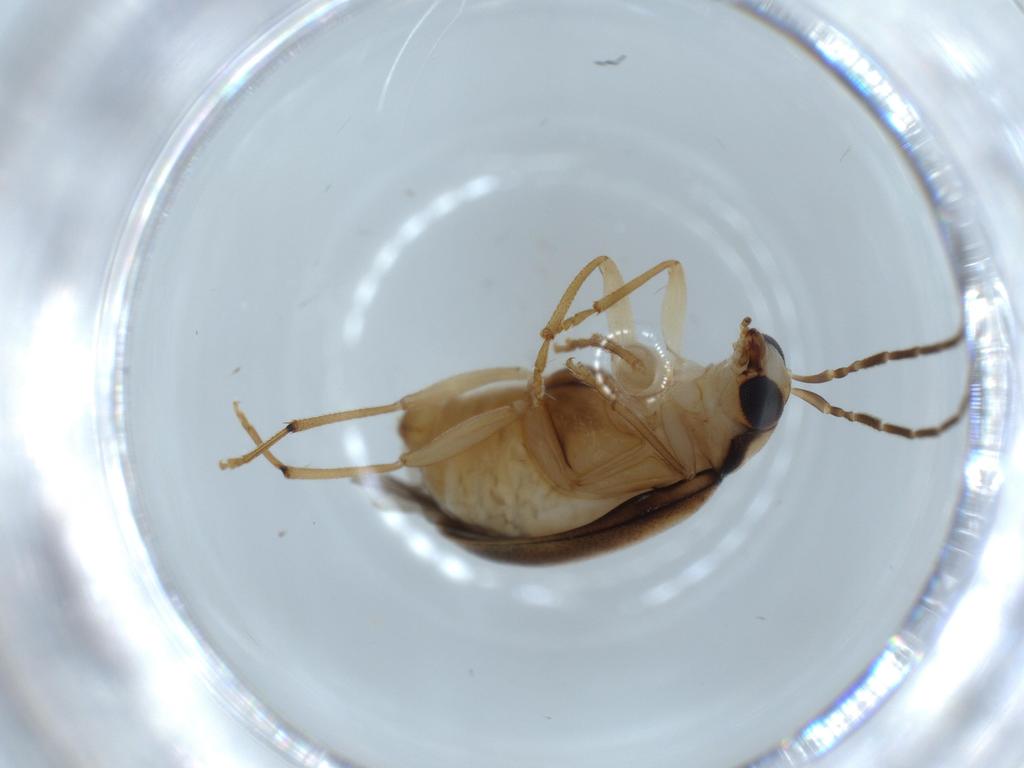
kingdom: Animalia
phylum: Arthropoda
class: Insecta
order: Coleoptera
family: Chrysomelidae
